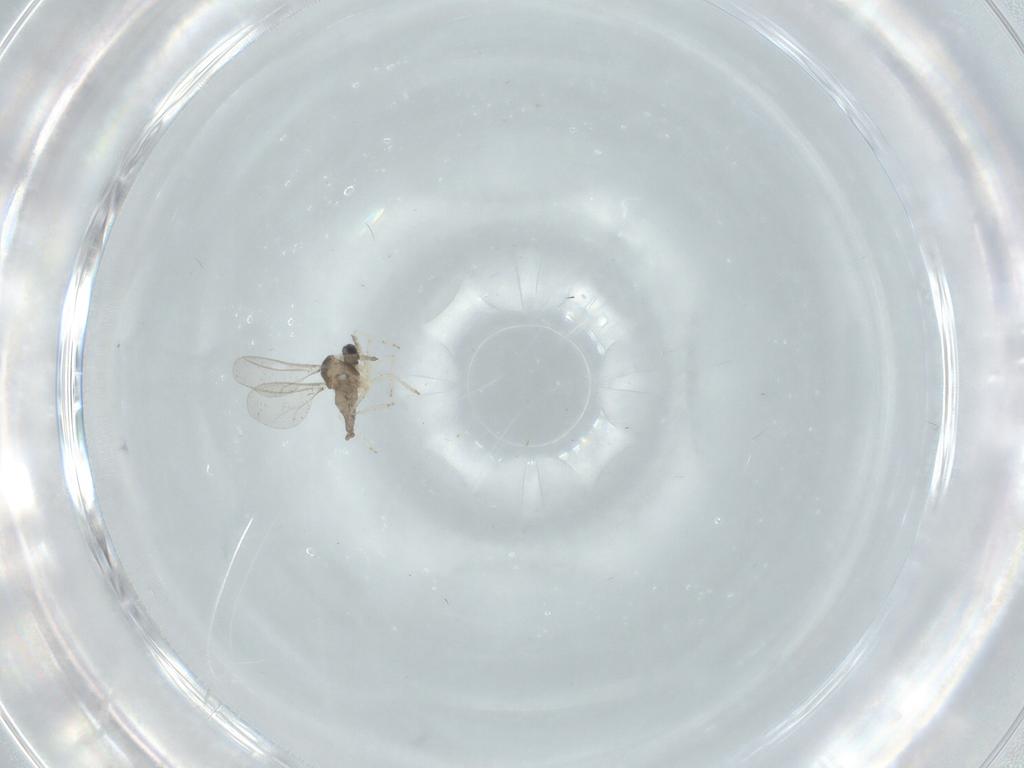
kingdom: Animalia
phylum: Arthropoda
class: Insecta
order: Diptera
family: Cecidomyiidae
